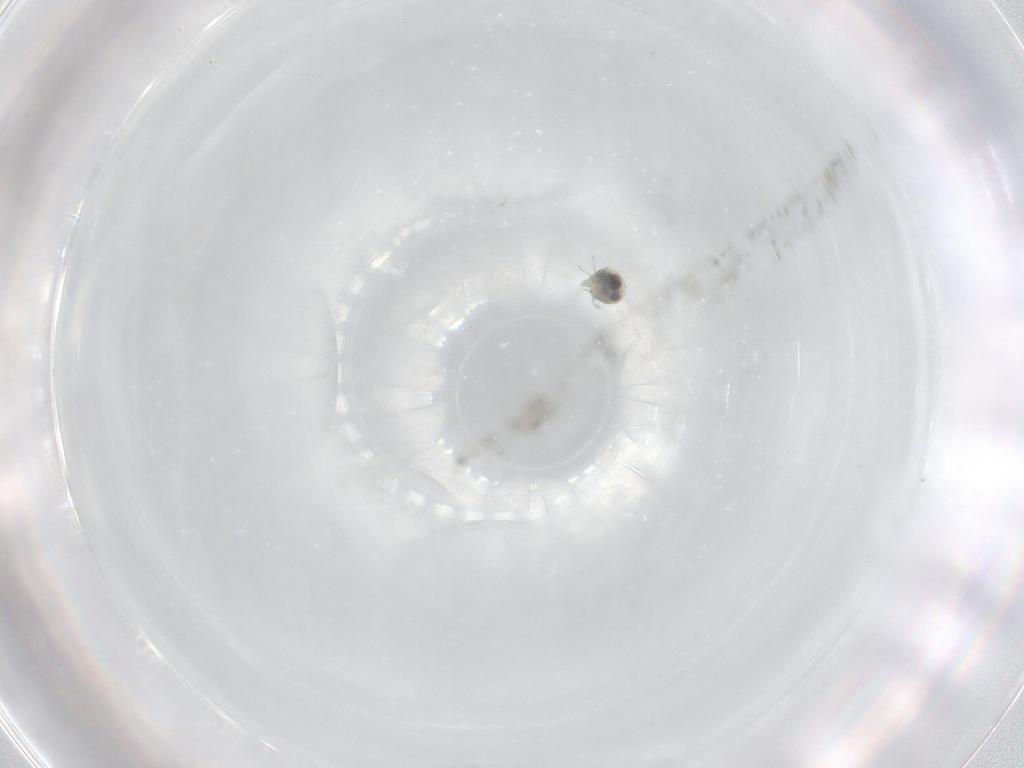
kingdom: Animalia
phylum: Arthropoda
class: Arachnida
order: Trombidiformes
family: Unionicolidae
